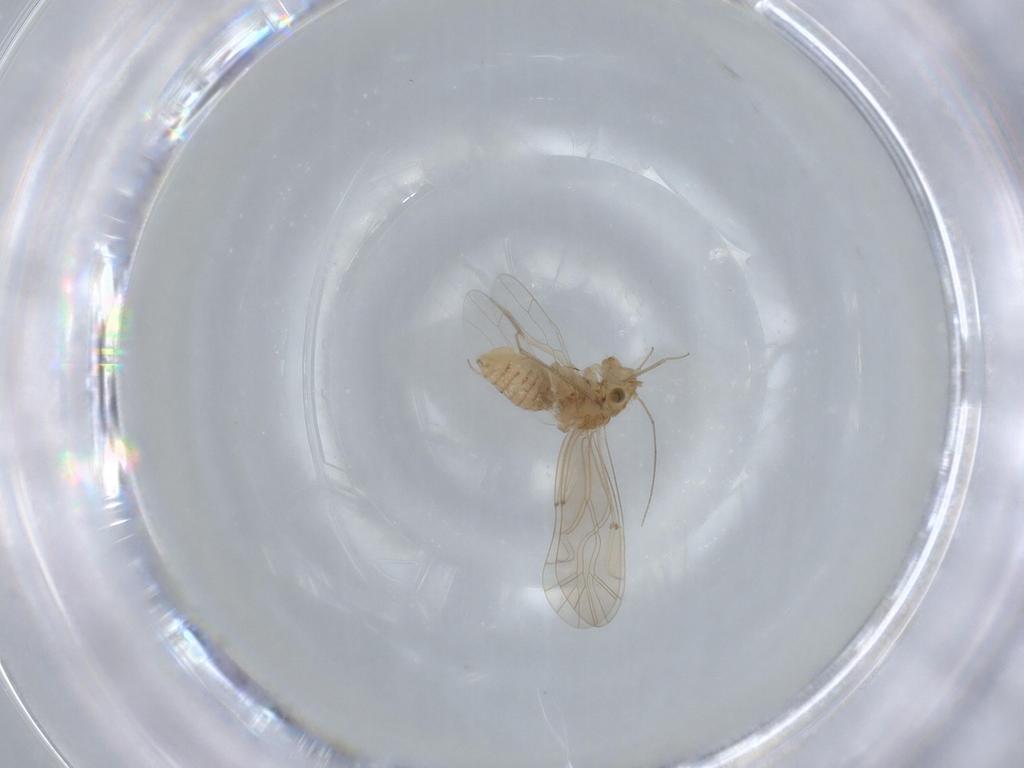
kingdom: Animalia
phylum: Arthropoda
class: Insecta
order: Psocodea
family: Lachesillidae
